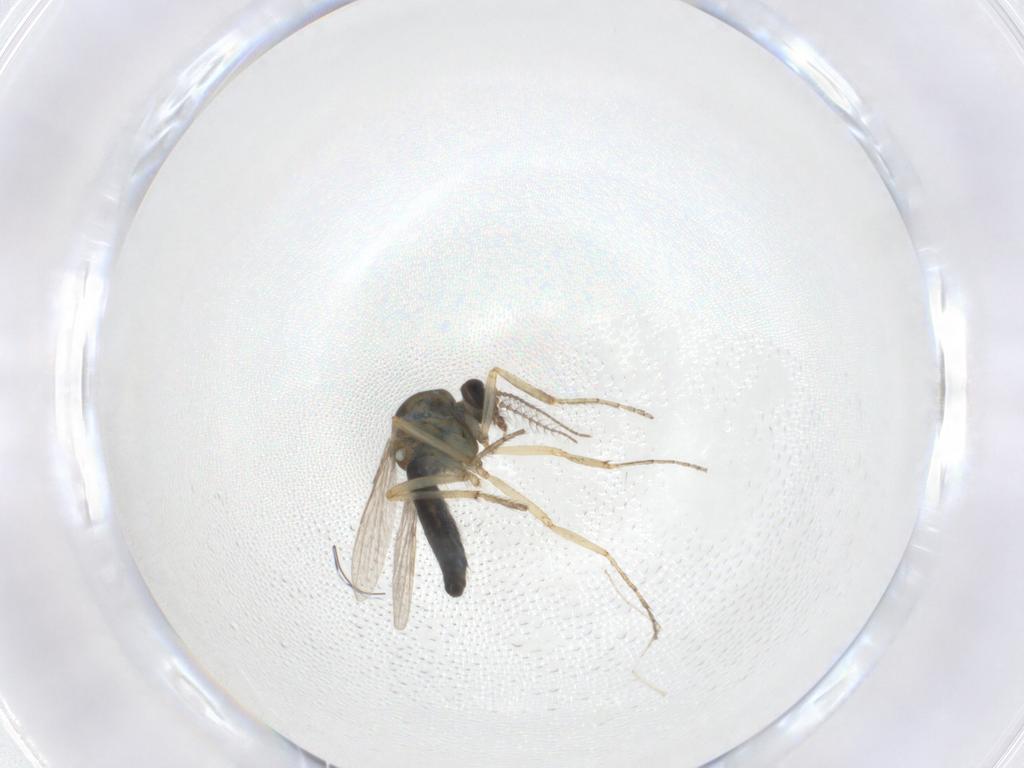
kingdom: Animalia
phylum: Arthropoda
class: Insecta
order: Diptera
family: Ceratopogonidae
